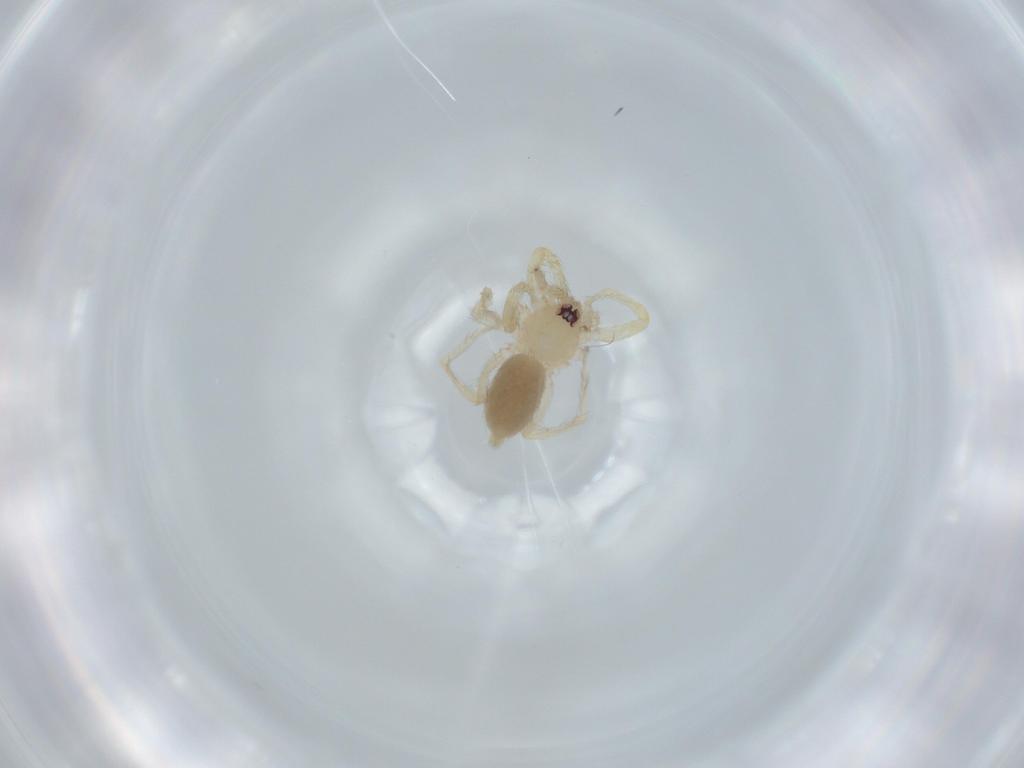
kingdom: Animalia
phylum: Arthropoda
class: Arachnida
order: Araneae
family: Oonopidae
